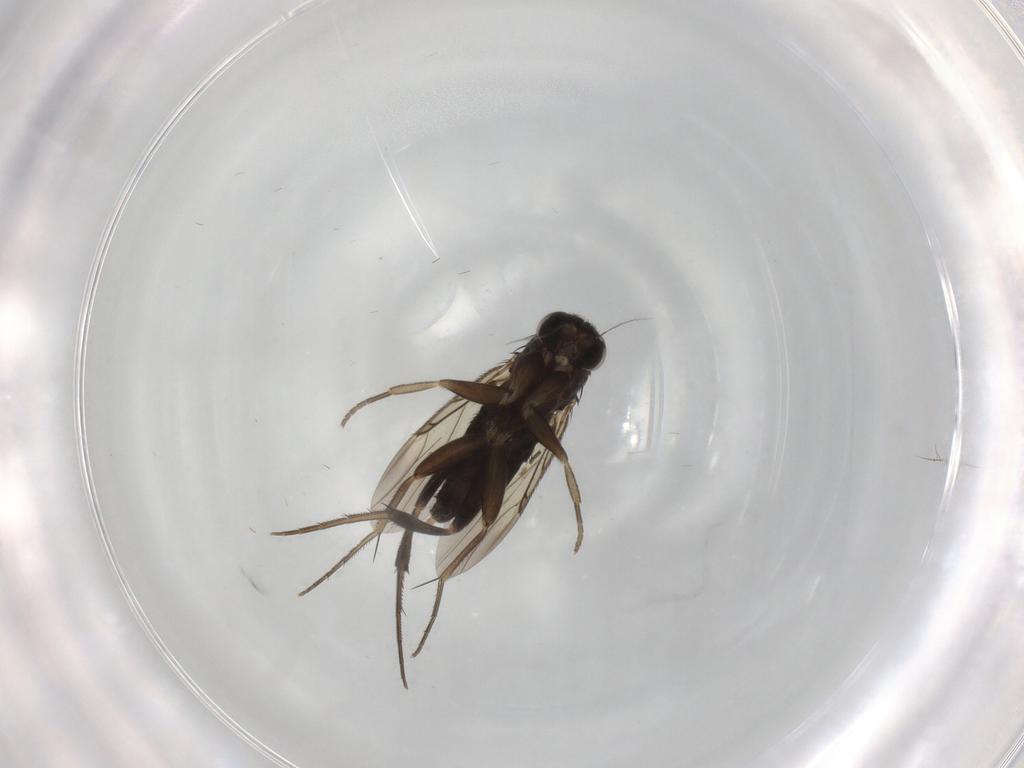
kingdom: Animalia
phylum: Arthropoda
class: Insecta
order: Diptera
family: Phoridae
